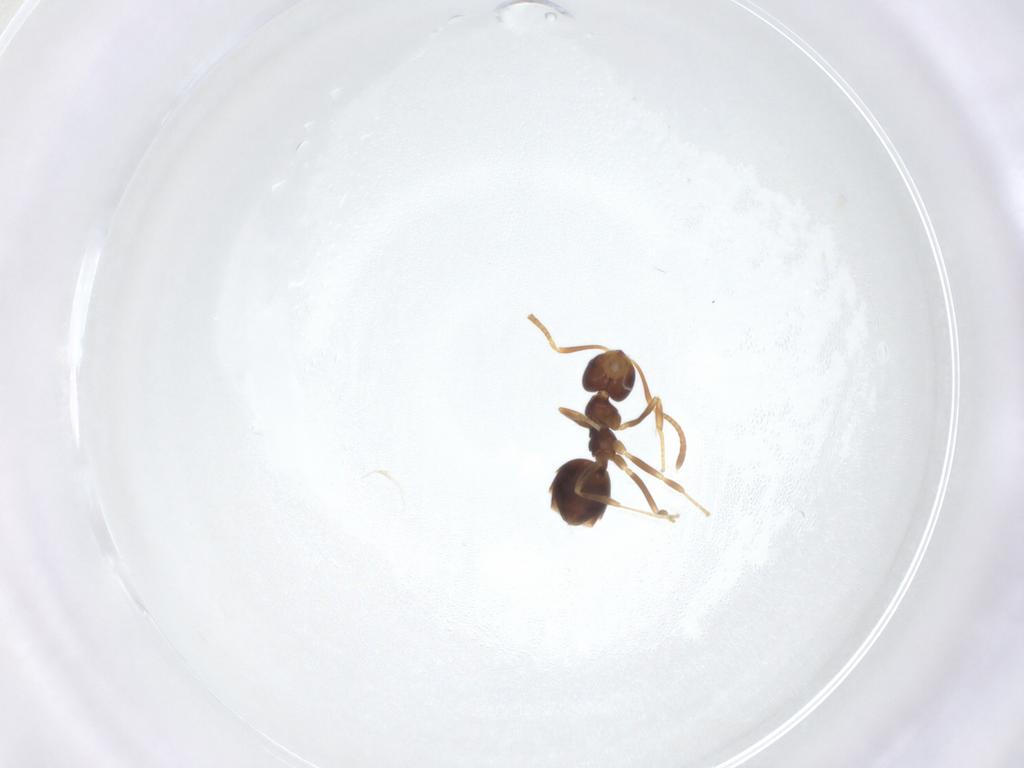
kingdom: Animalia
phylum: Arthropoda
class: Insecta
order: Hymenoptera
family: Formicidae
